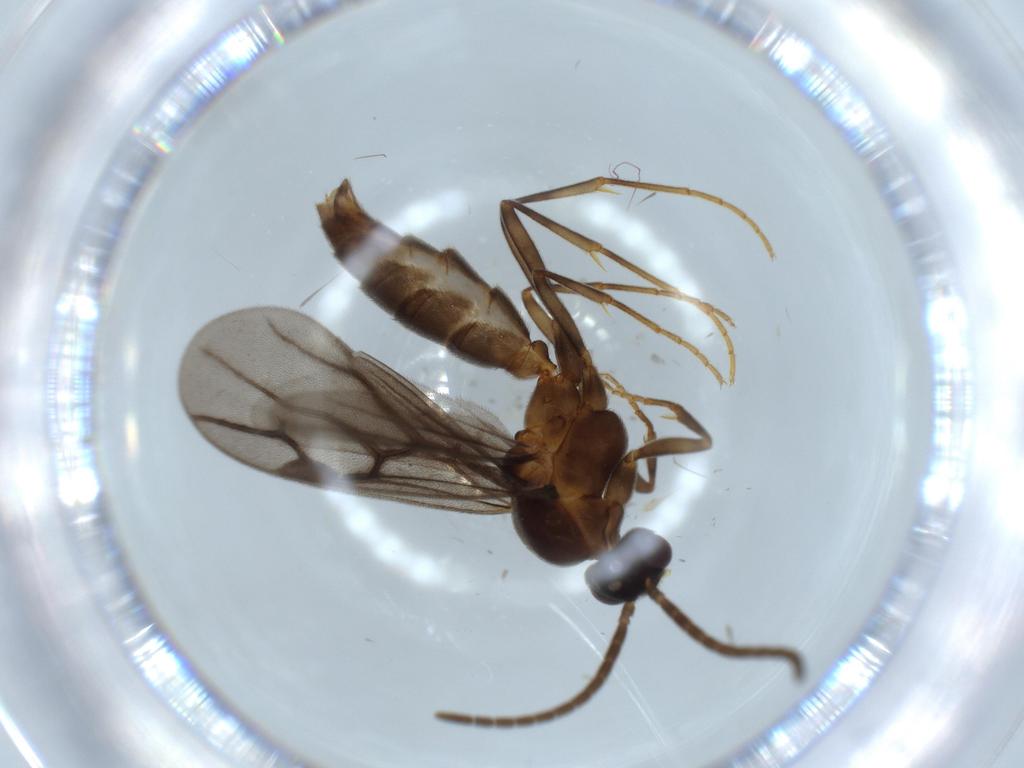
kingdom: Animalia
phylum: Arthropoda
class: Insecta
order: Hymenoptera
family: Formicidae
